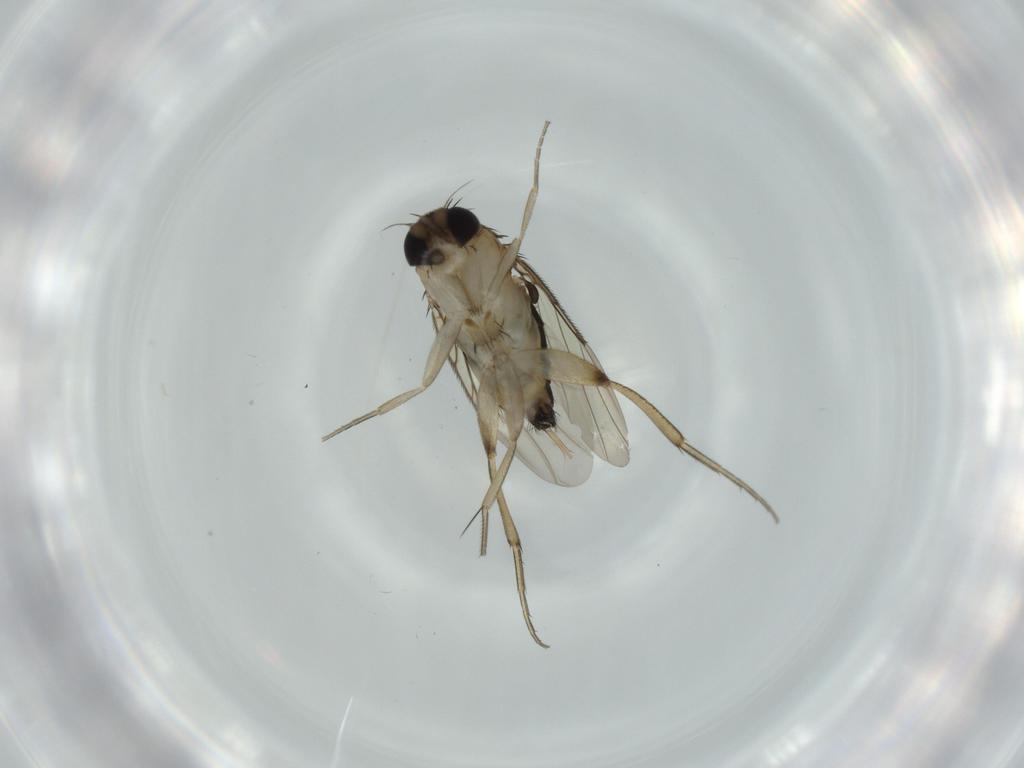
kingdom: Animalia
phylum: Arthropoda
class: Insecta
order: Diptera
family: Phoridae
